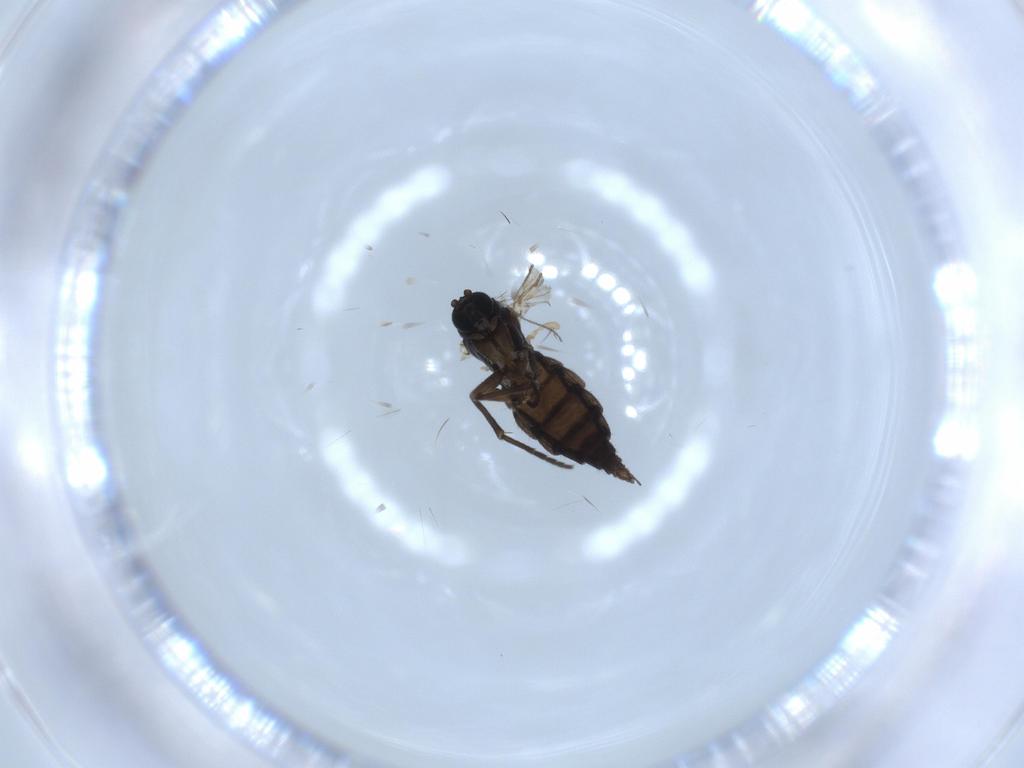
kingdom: Animalia
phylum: Arthropoda
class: Insecta
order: Diptera
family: Sciaridae
